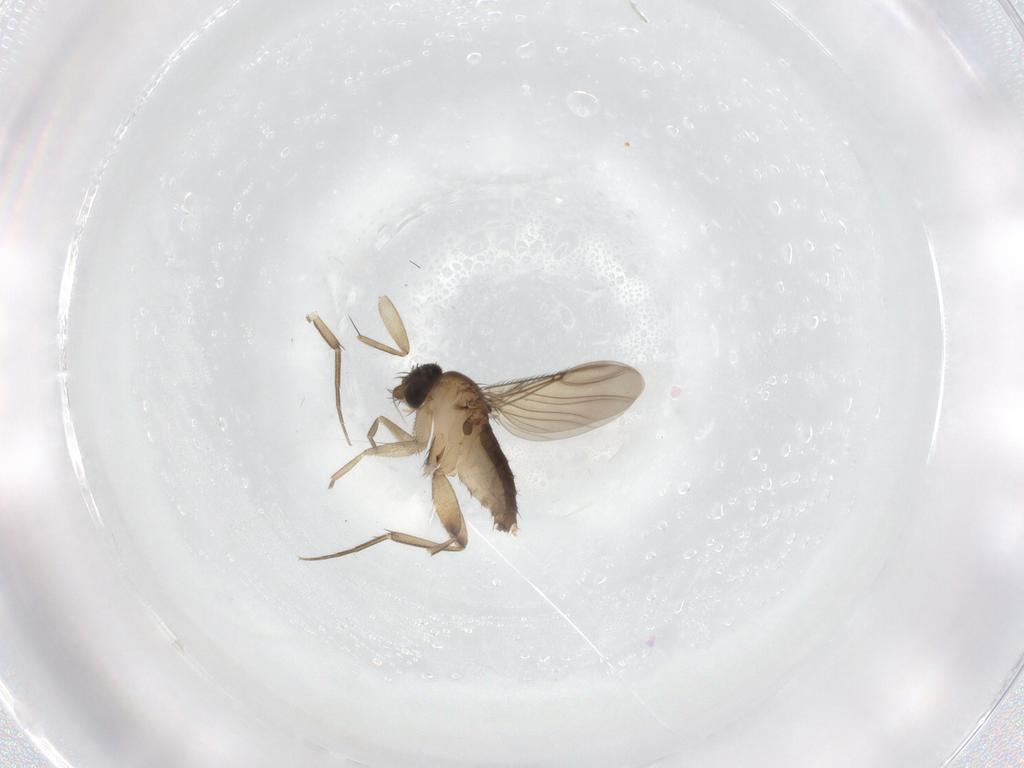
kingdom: Animalia
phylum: Arthropoda
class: Insecta
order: Diptera
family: Phoridae
